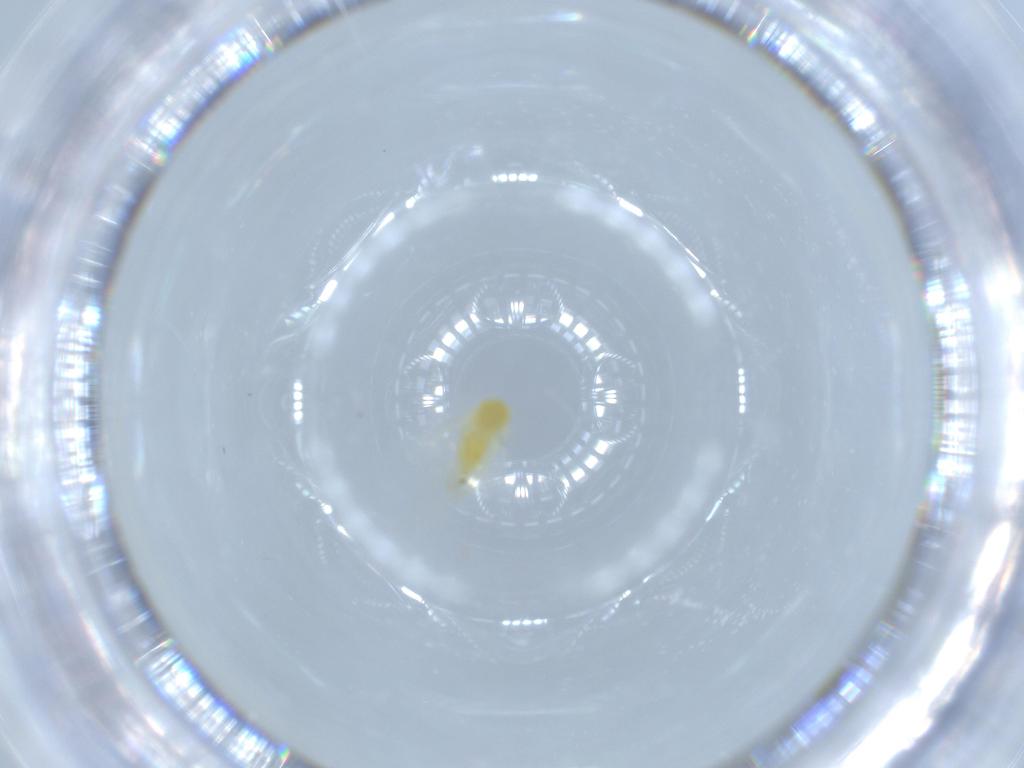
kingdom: Animalia
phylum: Arthropoda
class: Insecta
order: Hemiptera
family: Aleyrodidae
